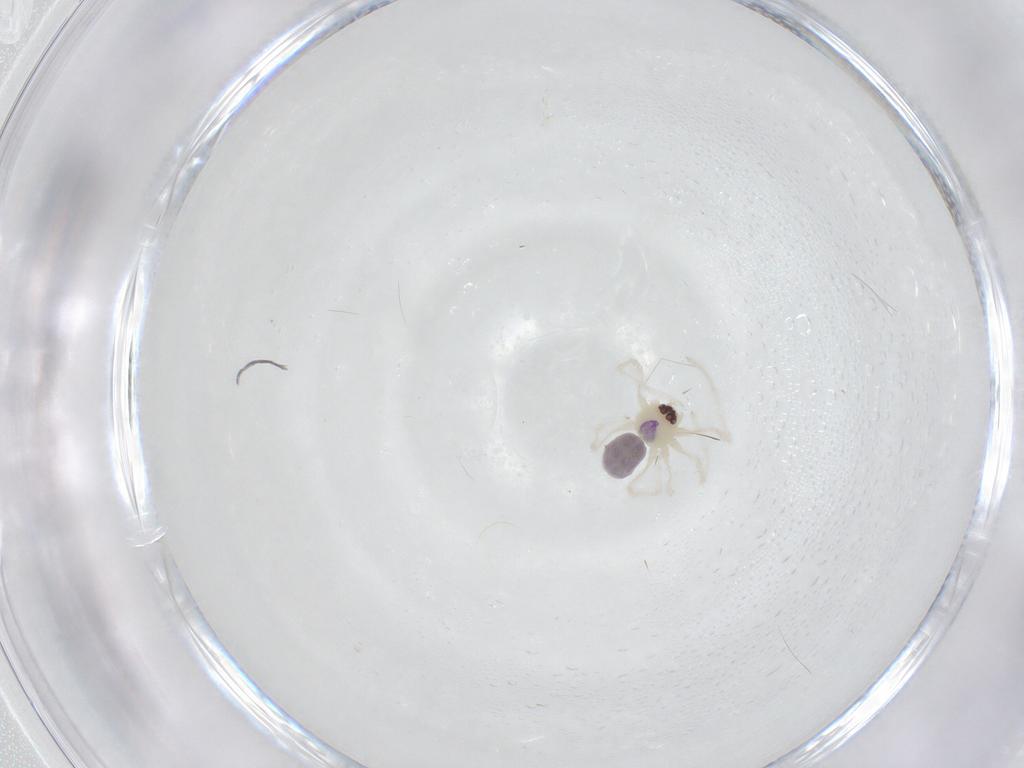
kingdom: Animalia
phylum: Arthropoda
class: Arachnida
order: Araneae
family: Pholcidae
